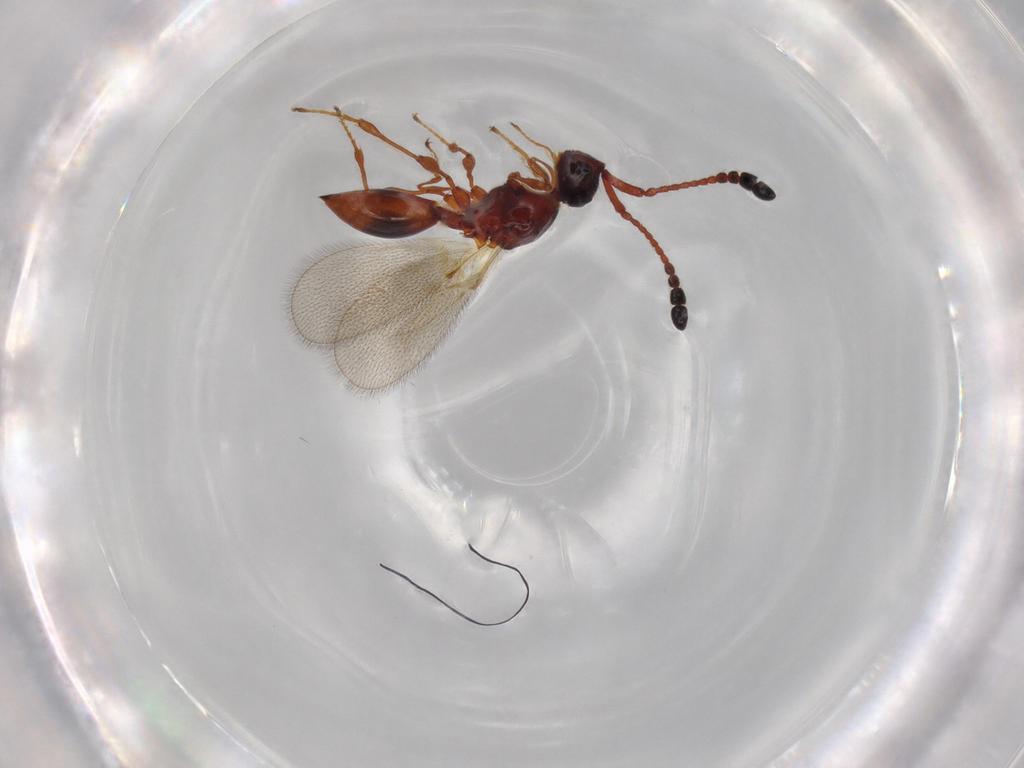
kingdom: Animalia
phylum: Arthropoda
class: Insecta
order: Hymenoptera
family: Diapriidae
